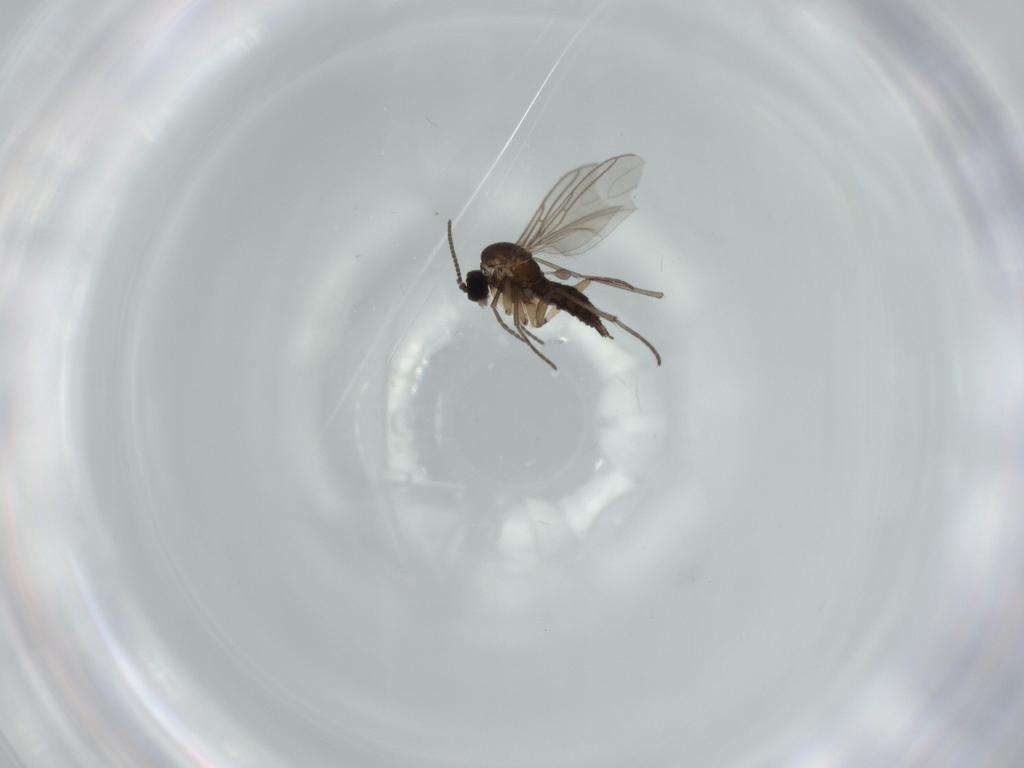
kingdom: Animalia
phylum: Arthropoda
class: Insecta
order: Diptera
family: Sciaridae
